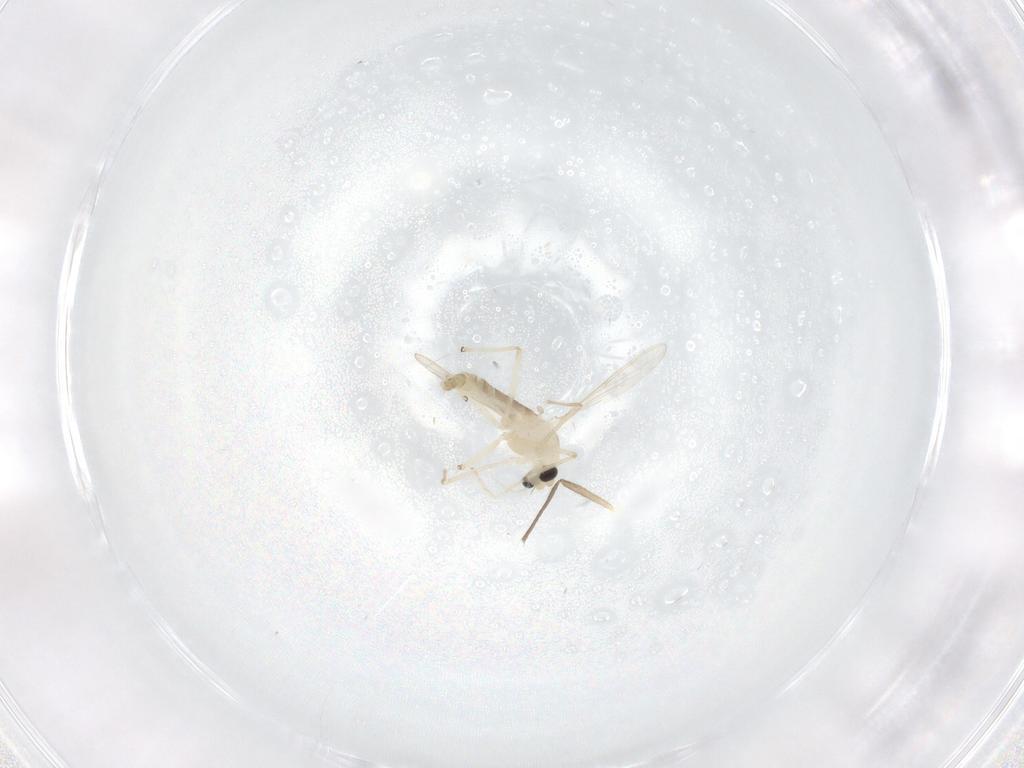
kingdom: Animalia
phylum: Arthropoda
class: Insecta
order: Diptera
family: Chironomidae
